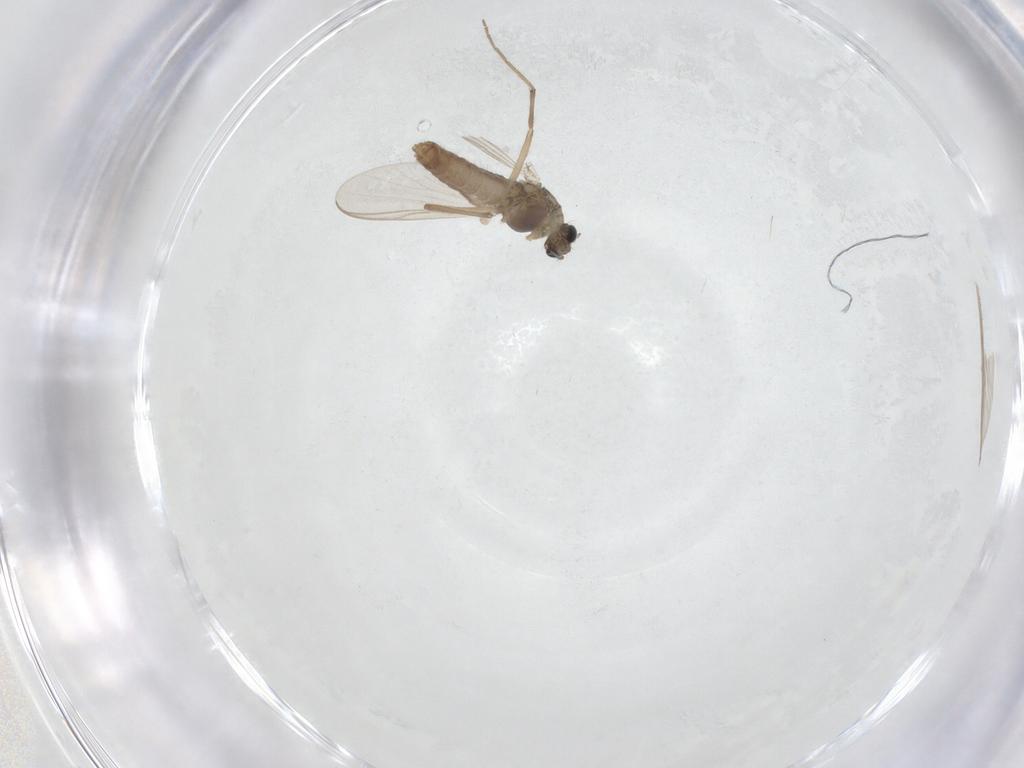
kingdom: Animalia
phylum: Arthropoda
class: Insecta
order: Diptera
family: Chironomidae
